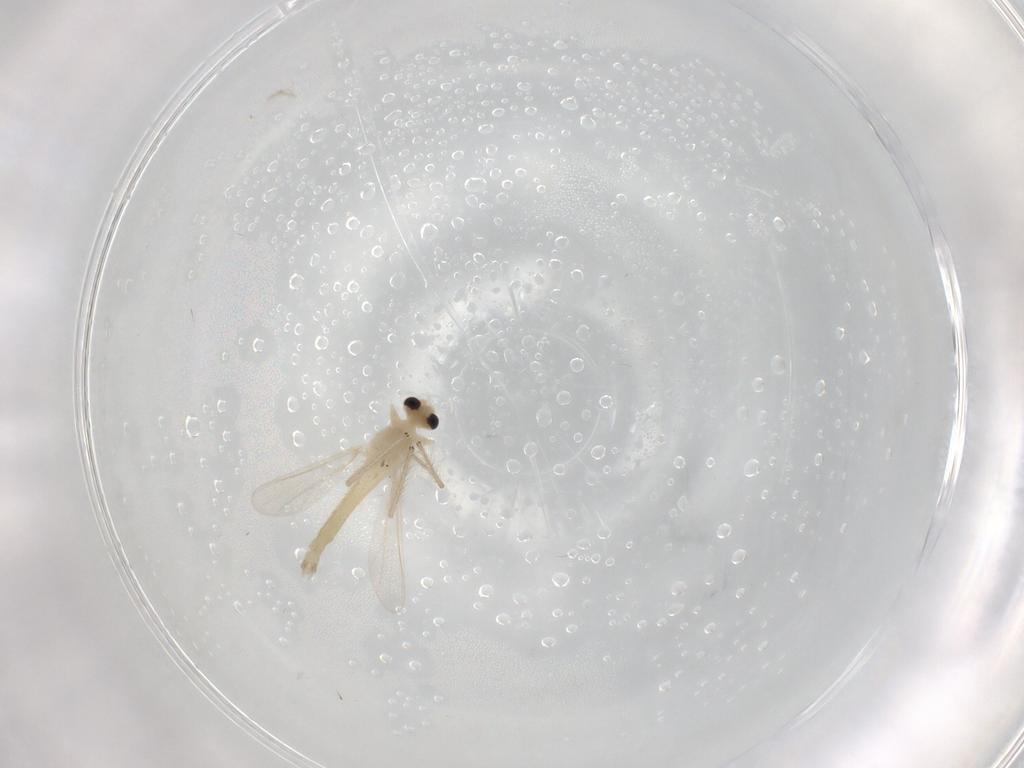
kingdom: Animalia
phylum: Arthropoda
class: Insecta
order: Diptera
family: Chironomidae
